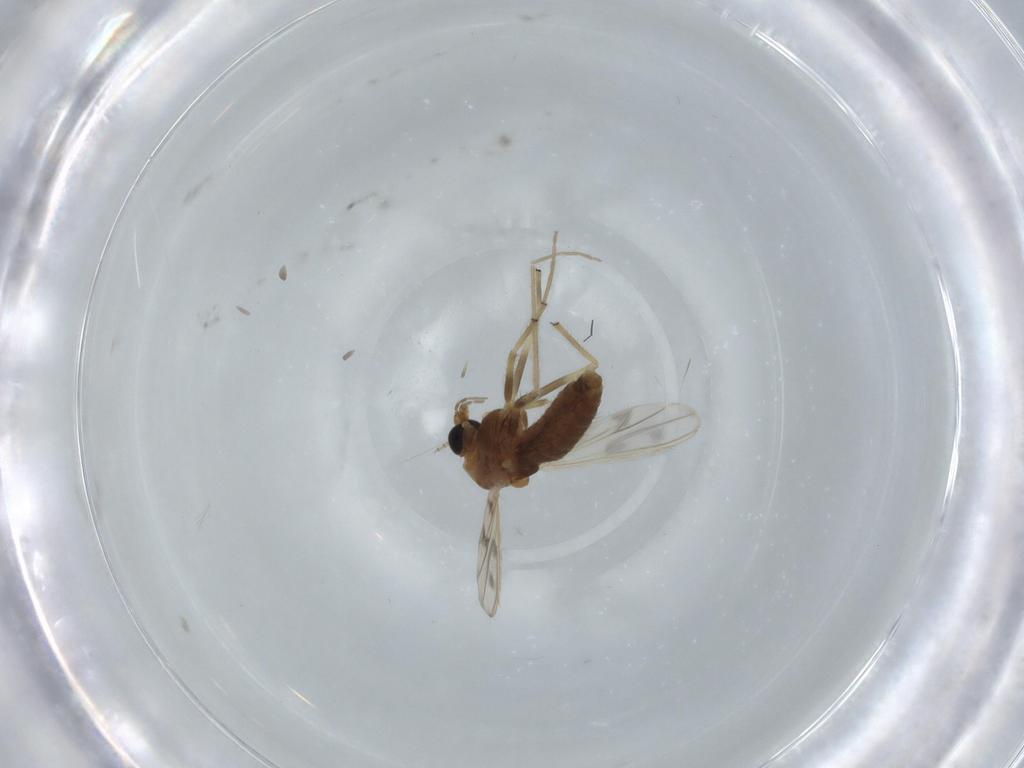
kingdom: Animalia
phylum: Arthropoda
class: Insecta
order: Diptera
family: Chironomidae
